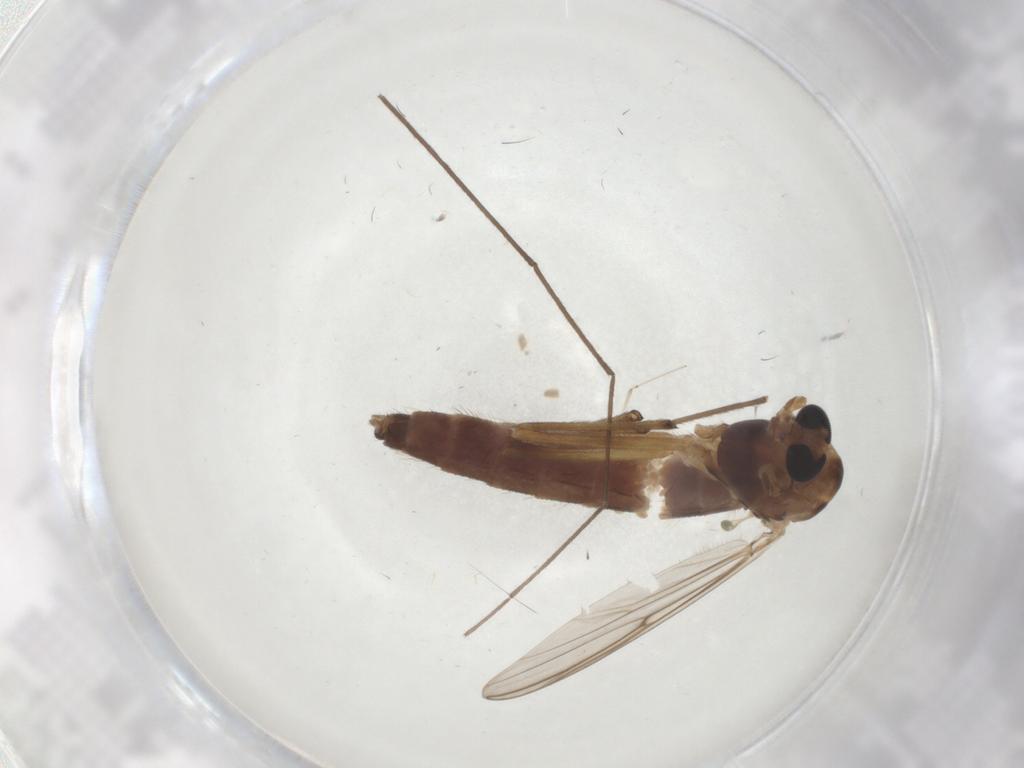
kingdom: Animalia
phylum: Arthropoda
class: Insecta
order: Diptera
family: Chironomidae
